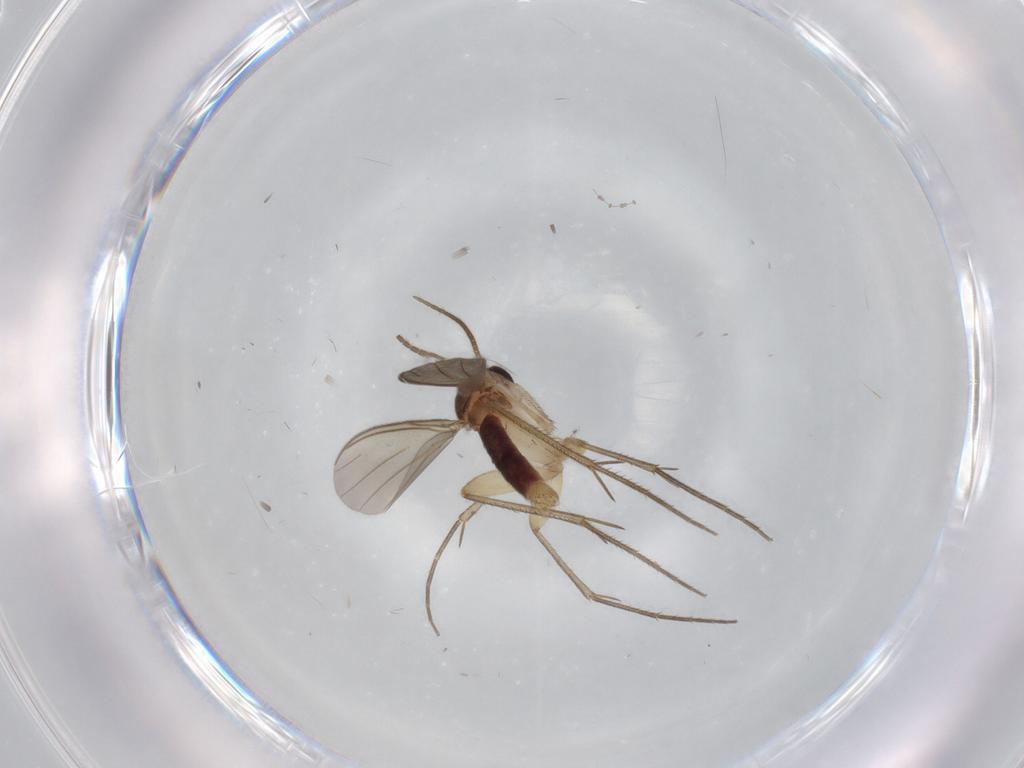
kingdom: Animalia
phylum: Arthropoda
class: Insecta
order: Diptera
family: Mycetophilidae
